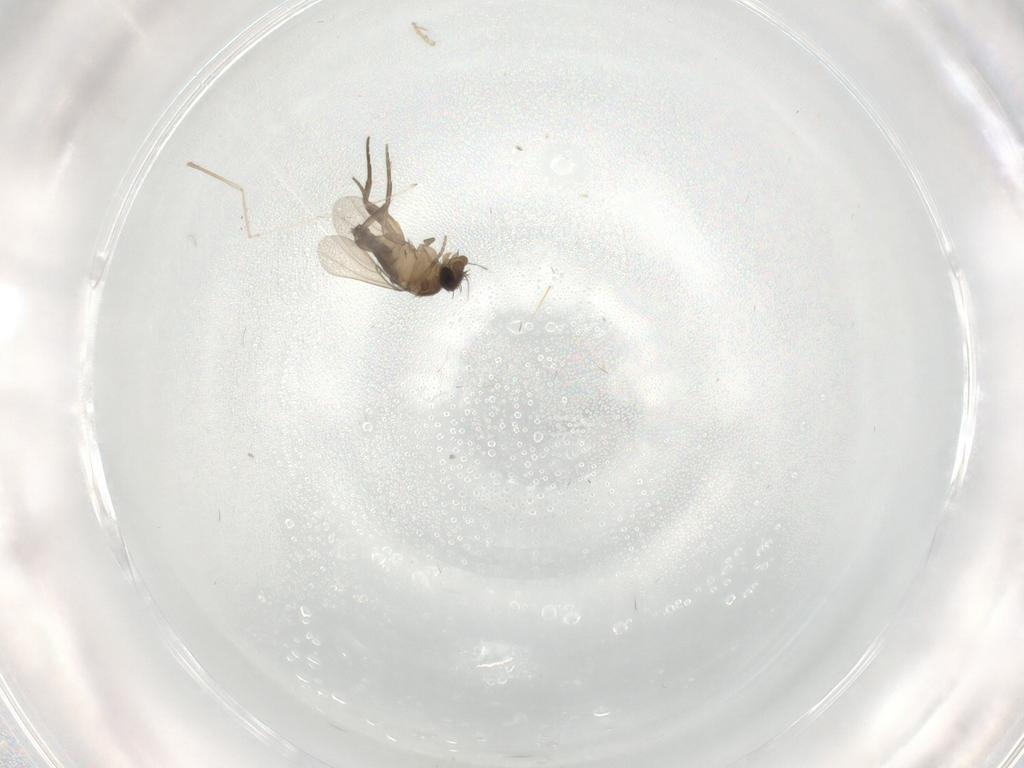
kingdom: Animalia
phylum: Arthropoda
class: Insecta
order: Diptera
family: Phoridae
